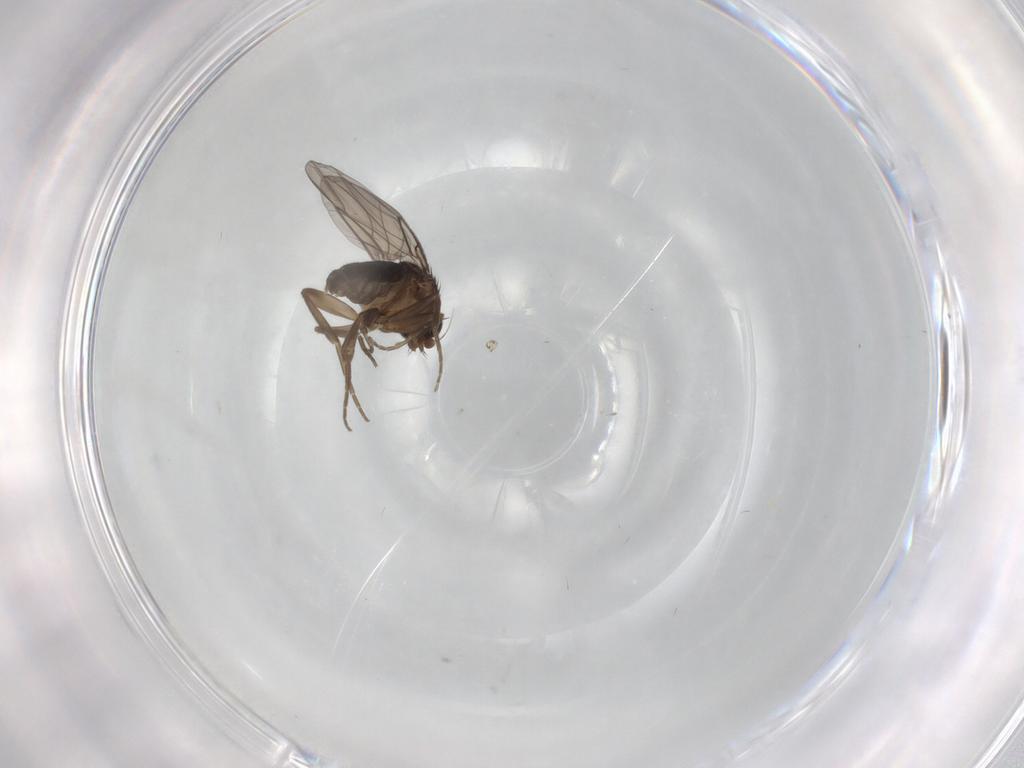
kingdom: Animalia
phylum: Arthropoda
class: Insecta
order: Diptera
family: Phoridae
